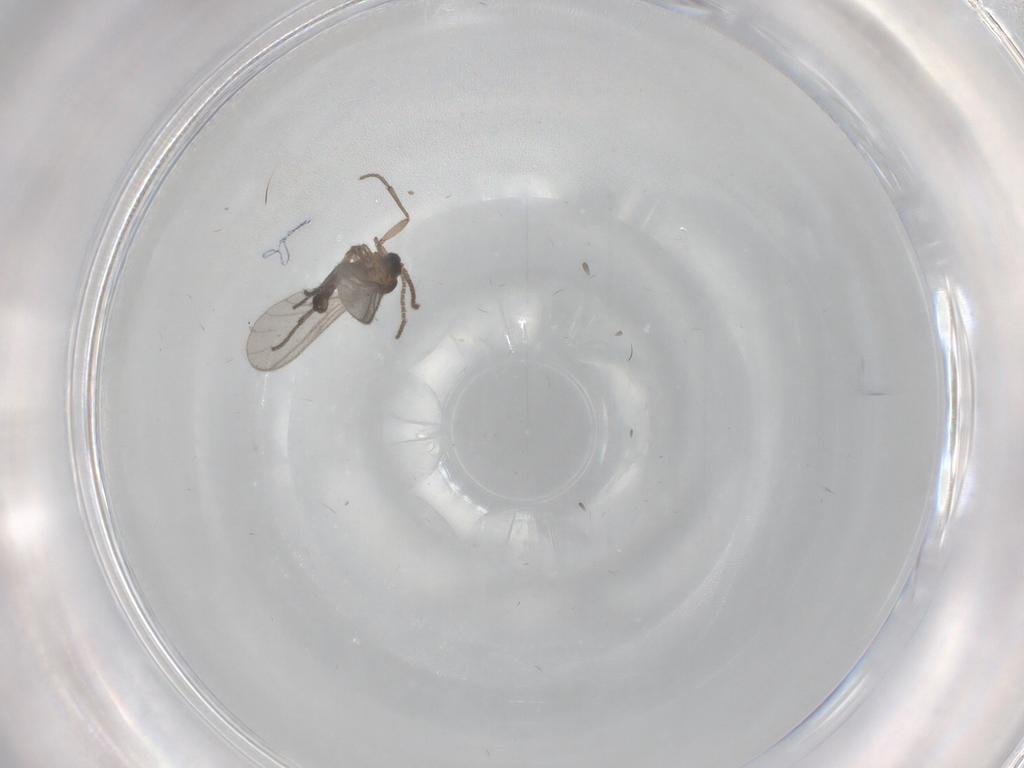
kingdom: Animalia
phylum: Arthropoda
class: Insecta
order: Diptera
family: Sciaridae
